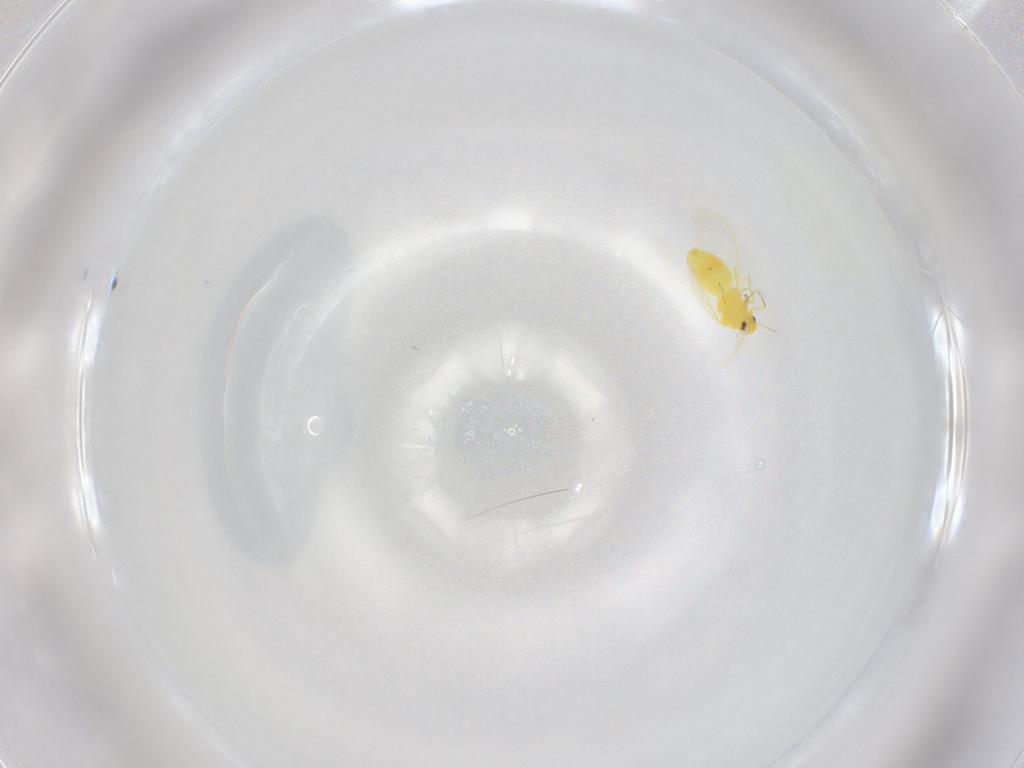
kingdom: Animalia
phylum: Arthropoda
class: Insecta
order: Hemiptera
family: Aleyrodidae
